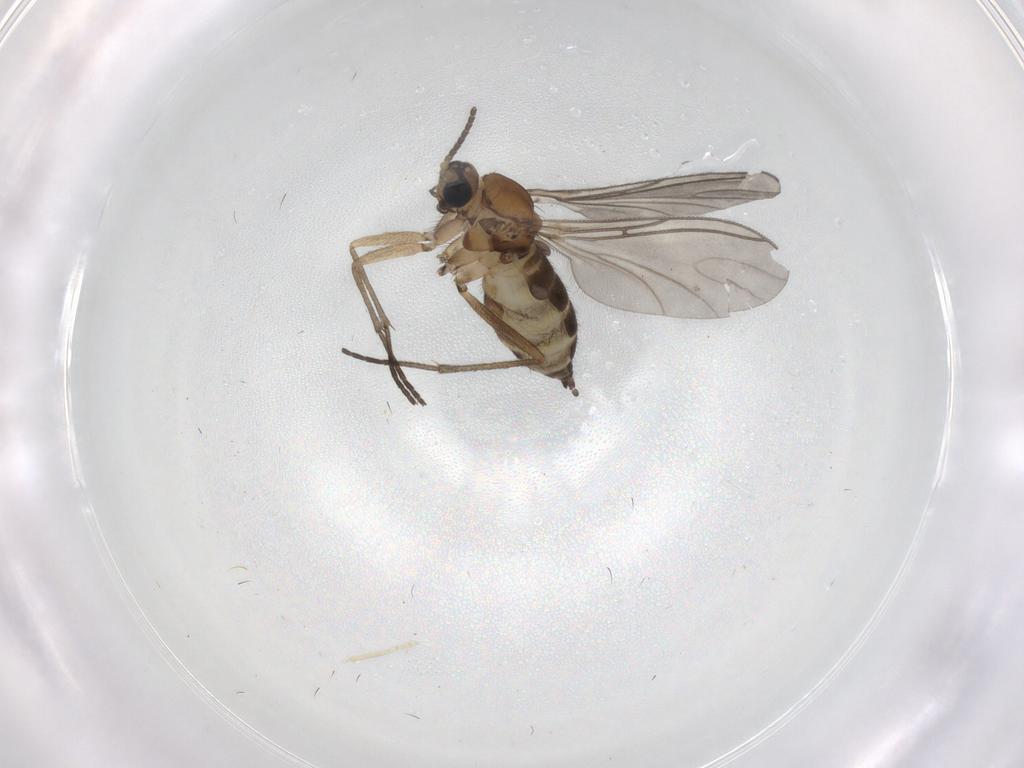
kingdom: Animalia
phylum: Arthropoda
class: Insecta
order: Diptera
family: Sciaridae
